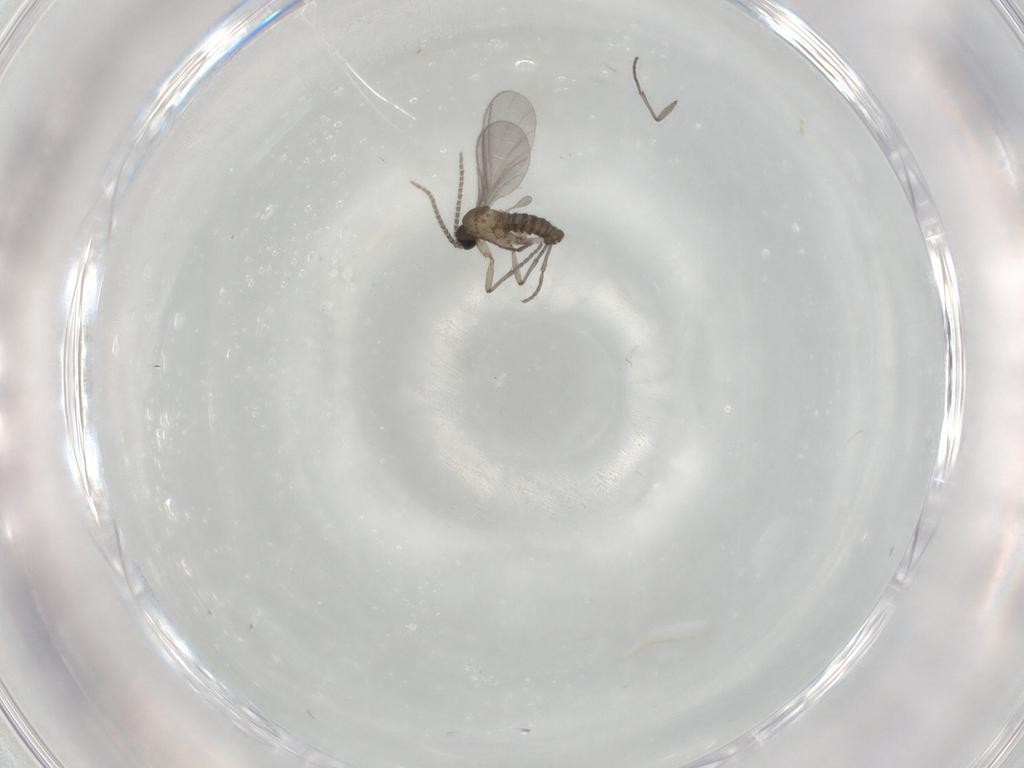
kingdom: Animalia
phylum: Arthropoda
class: Insecta
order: Diptera
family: Sciaridae
